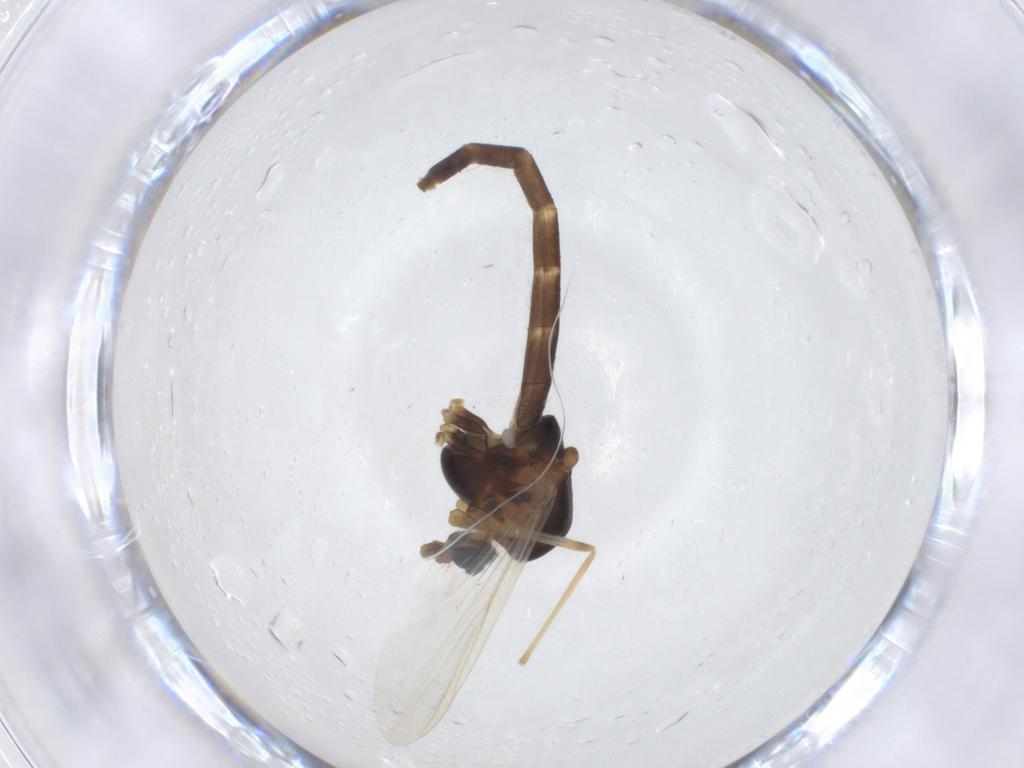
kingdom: Animalia
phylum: Arthropoda
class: Insecta
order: Diptera
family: Chironomidae
